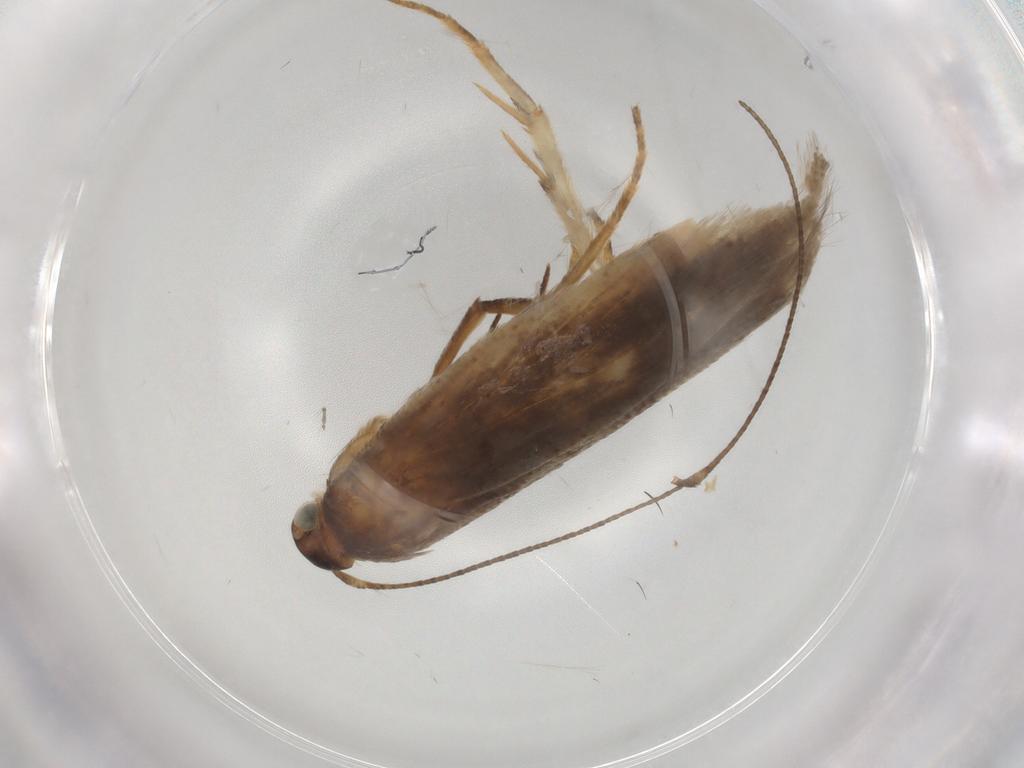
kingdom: Animalia
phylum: Arthropoda
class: Insecta
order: Lepidoptera
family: Gelechiidae
